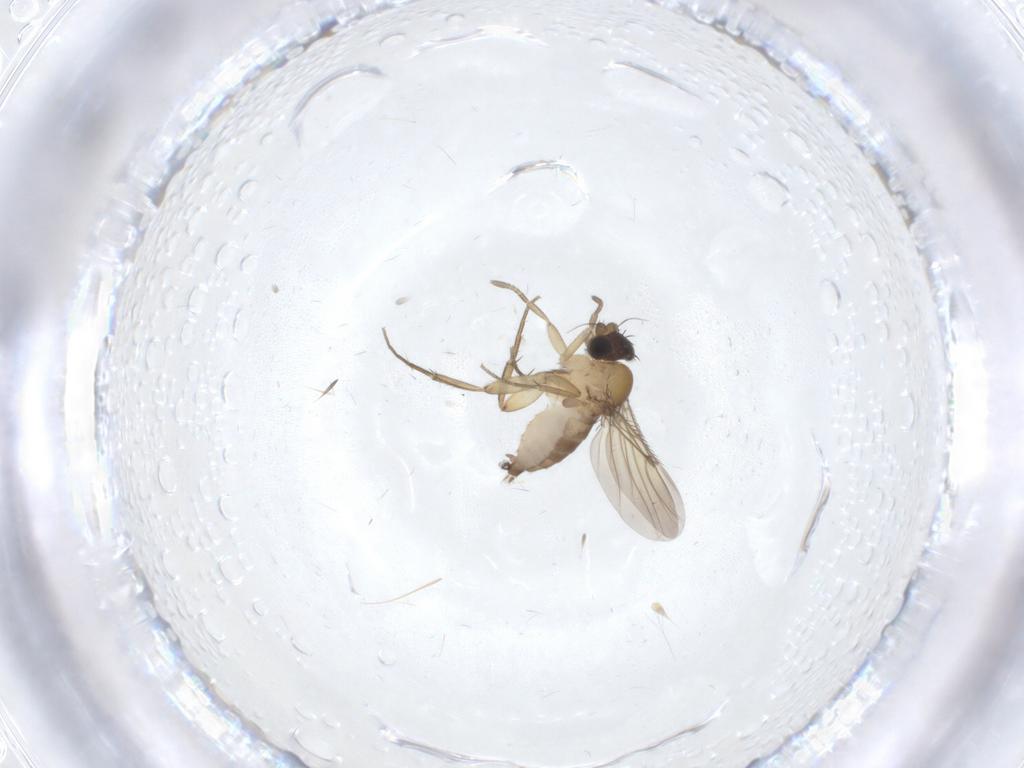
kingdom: Animalia
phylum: Arthropoda
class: Insecta
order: Diptera
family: Phoridae
